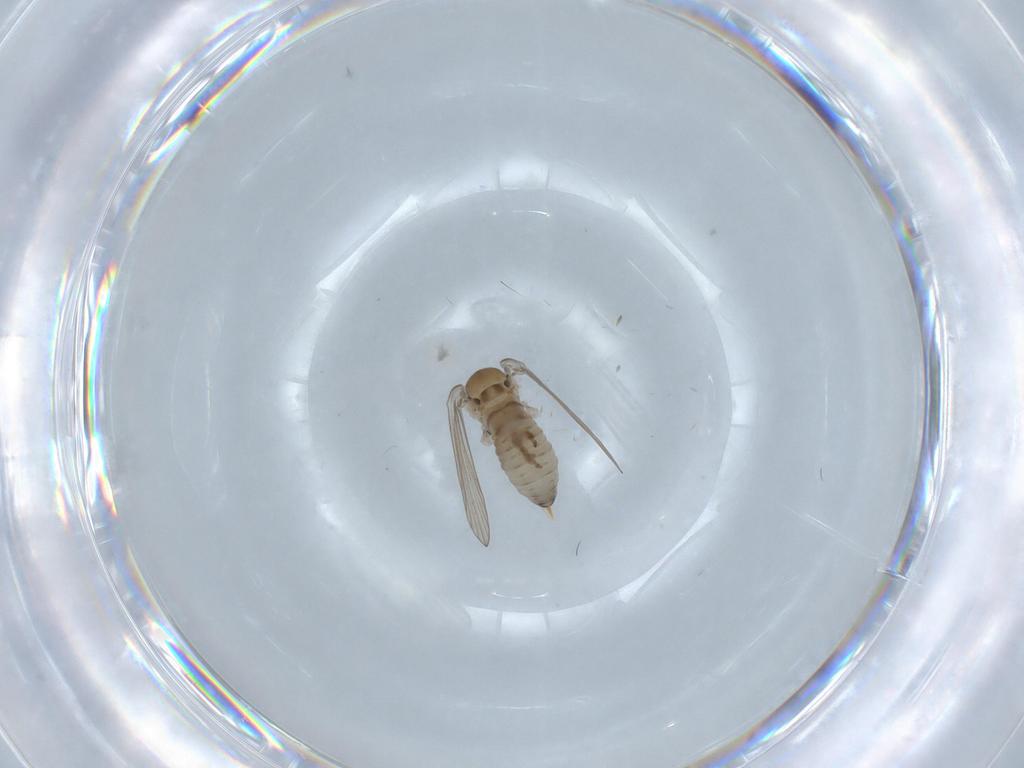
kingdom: Animalia
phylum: Arthropoda
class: Insecta
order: Diptera
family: Psychodidae
